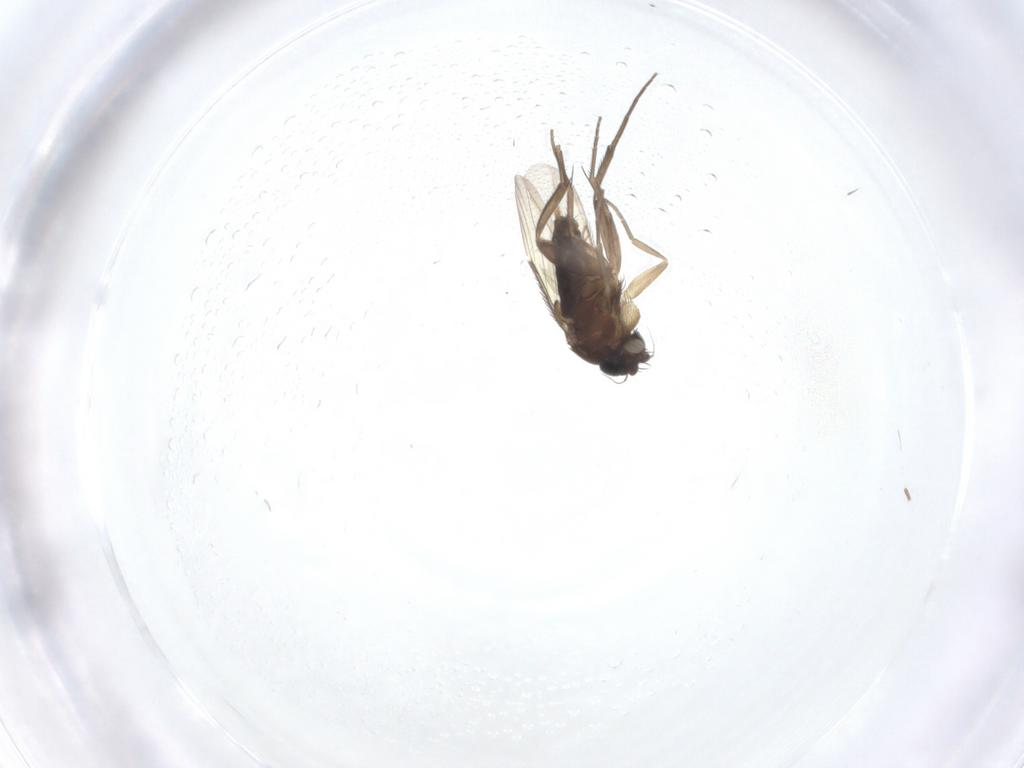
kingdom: Animalia
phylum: Arthropoda
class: Insecta
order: Diptera
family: Phoridae
